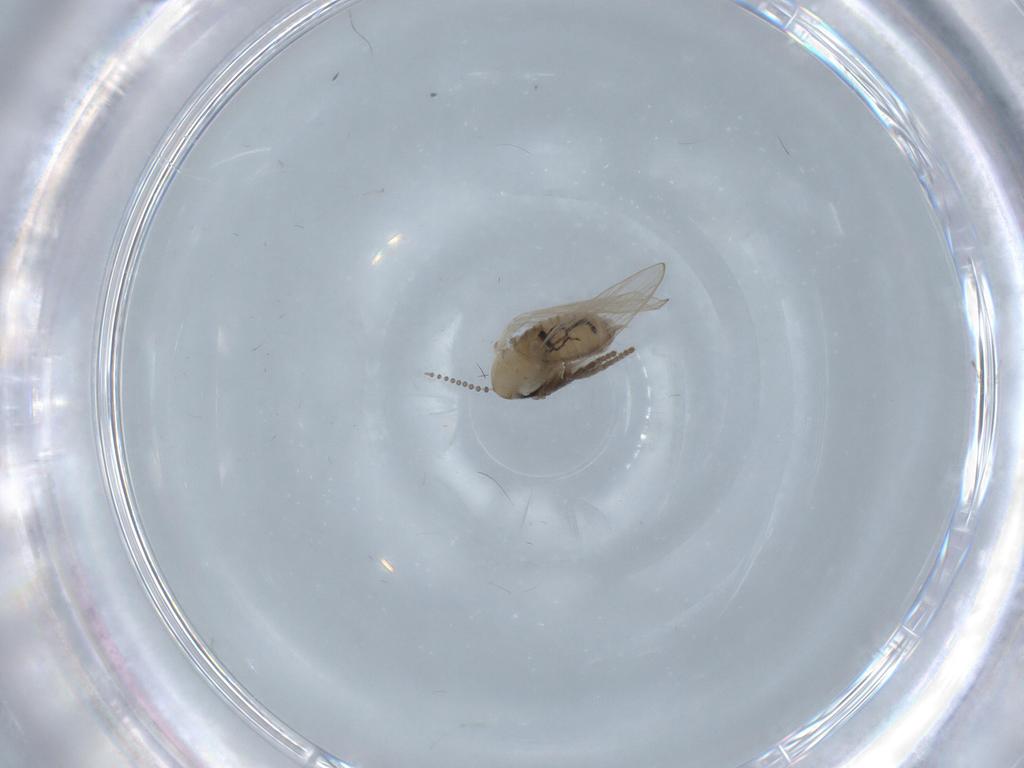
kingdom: Animalia
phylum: Arthropoda
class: Insecta
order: Diptera
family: Psychodidae
